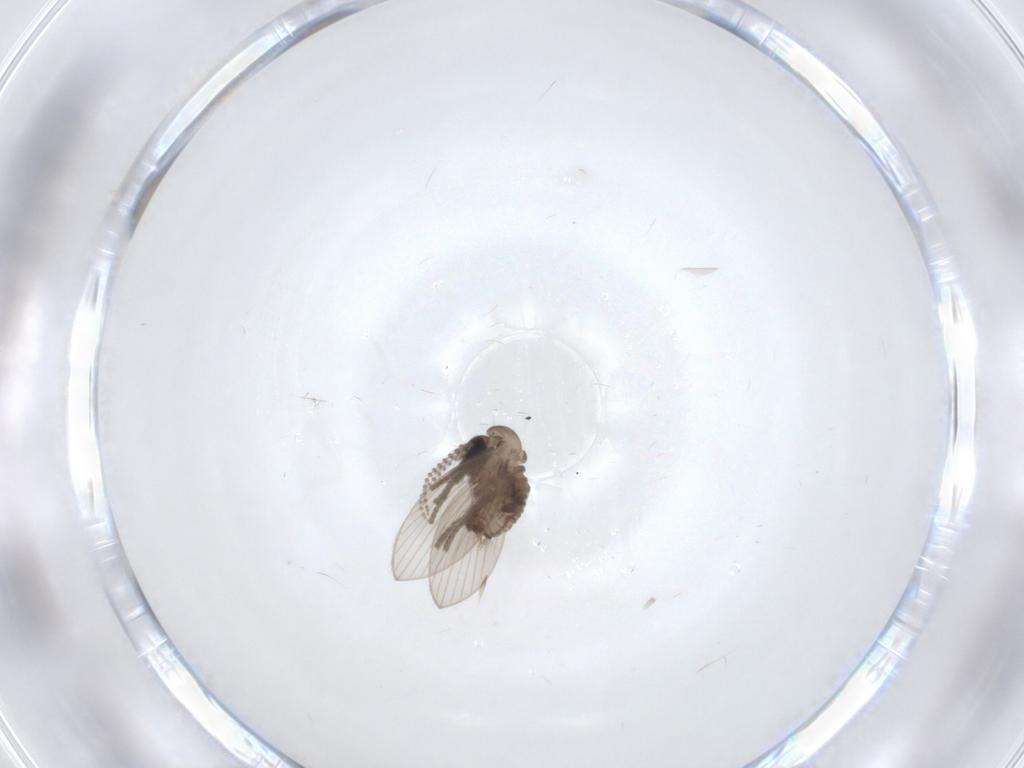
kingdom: Animalia
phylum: Arthropoda
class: Insecta
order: Diptera
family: Psychodidae
